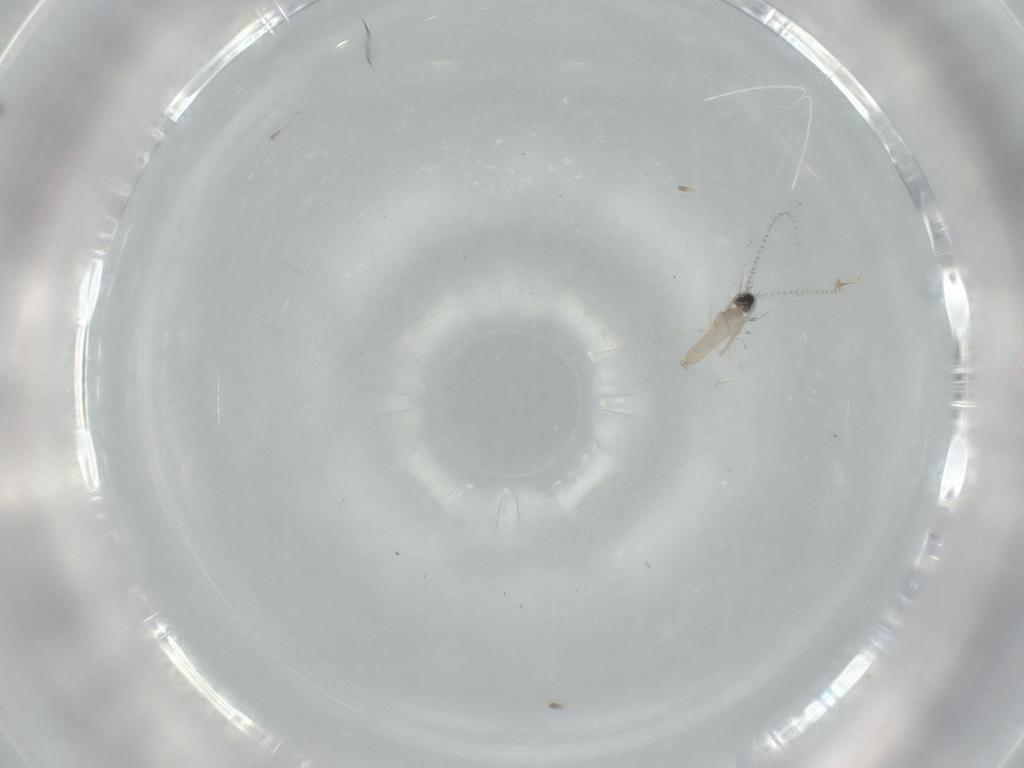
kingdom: Animalia
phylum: Arthropoda
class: Insecta
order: Diptera
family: Cecidomyiidae
